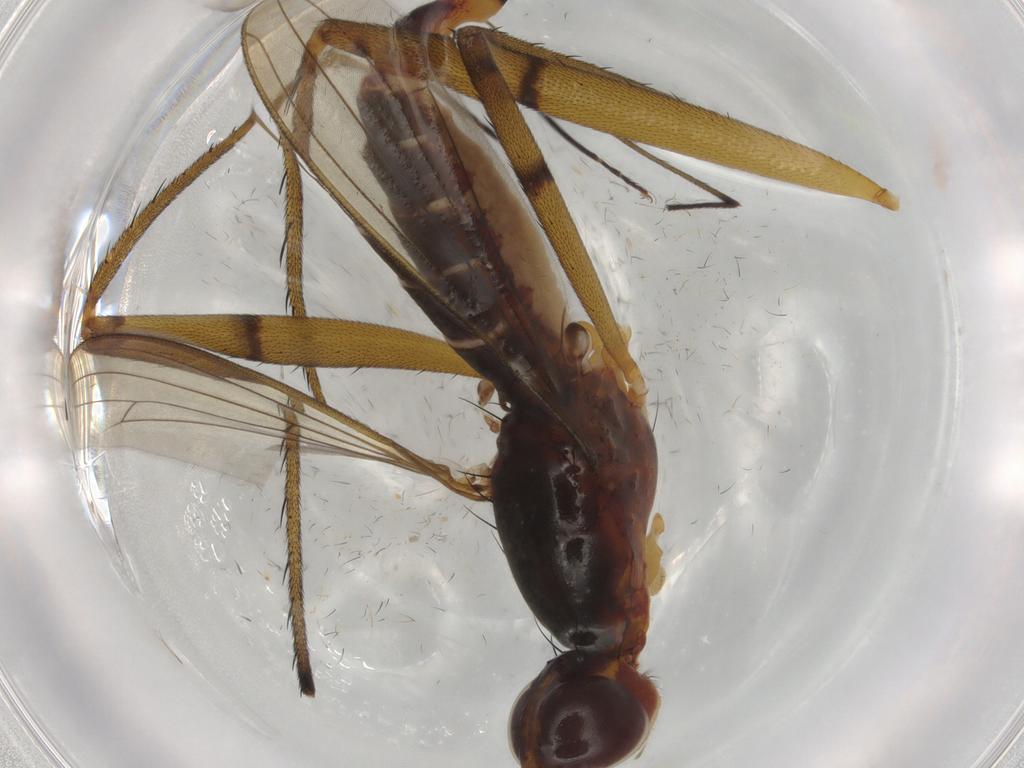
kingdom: Animalia
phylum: Arthropoda
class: Insecta
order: Diptera
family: Micropezidae
